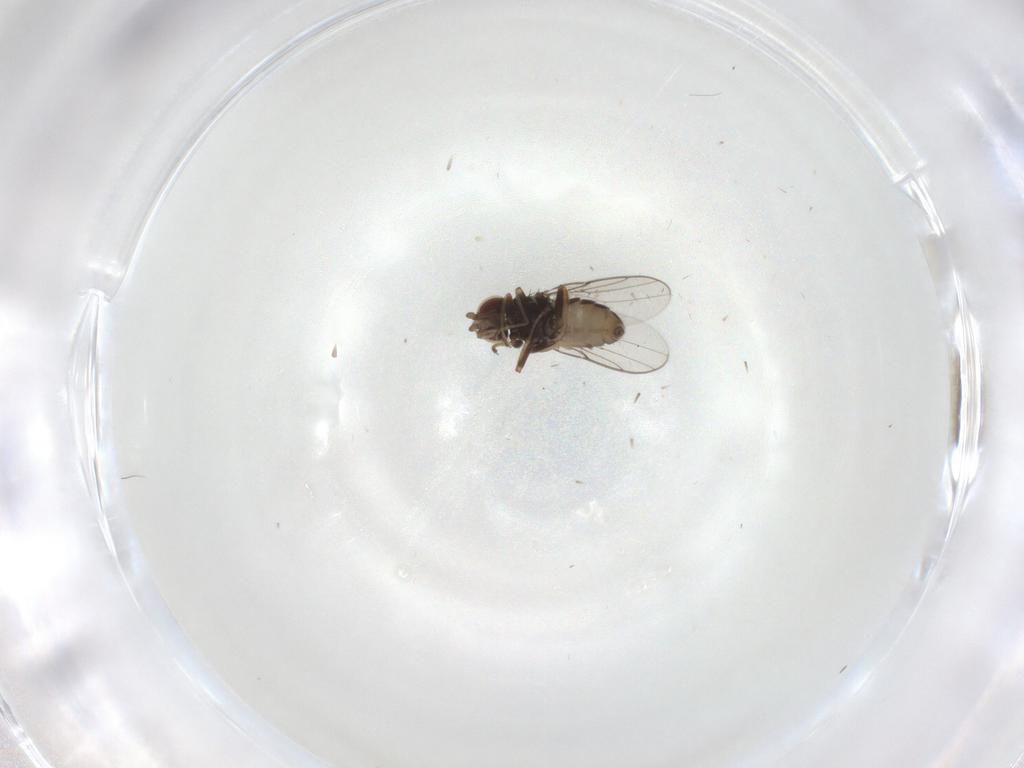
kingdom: Animalia
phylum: Arthropoda
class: Insecta
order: Diptera
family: Chloropidae
